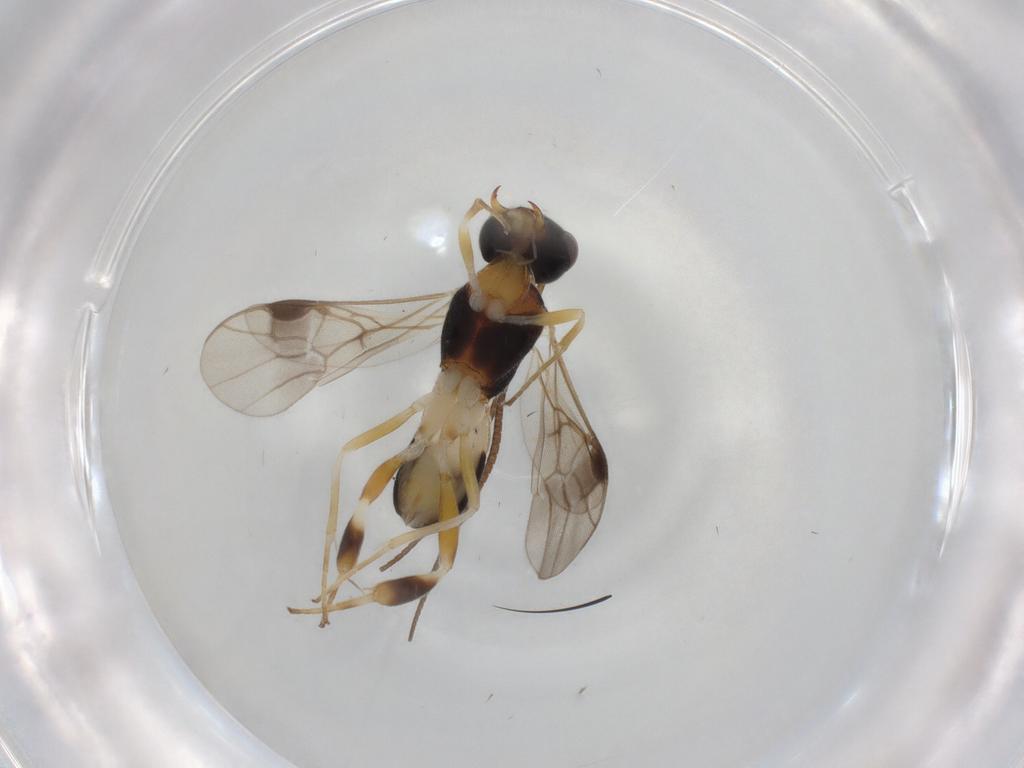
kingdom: Animalia
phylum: Arthropoda
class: Insecta
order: Hymenoptera
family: Braconidae
